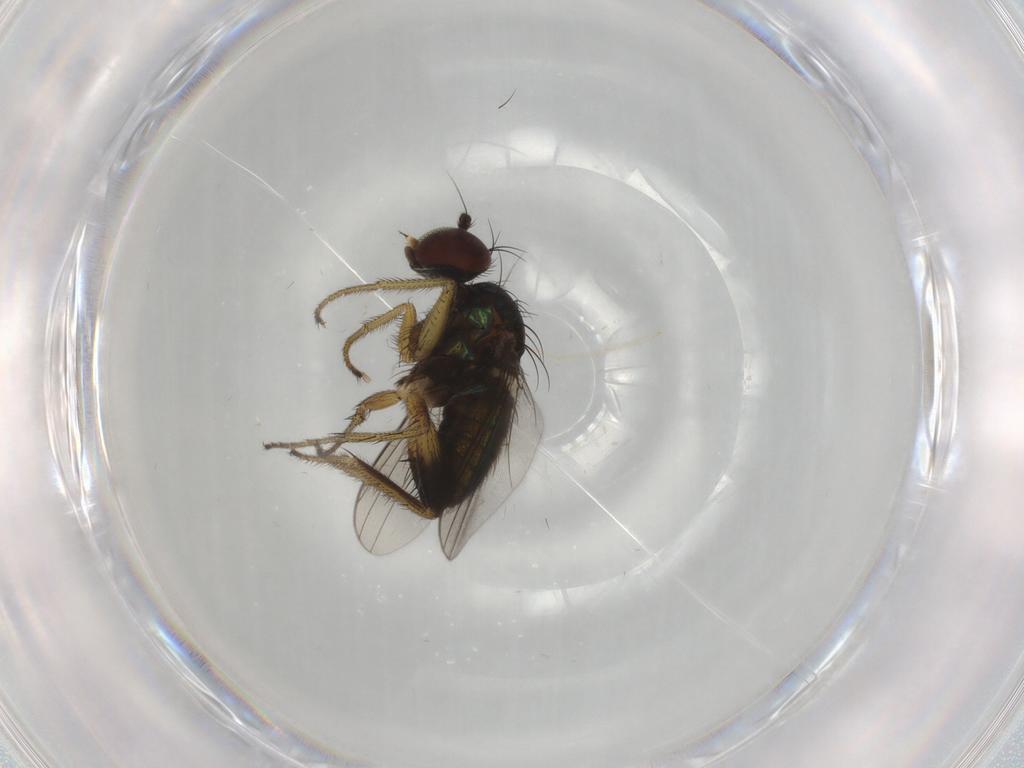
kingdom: Animalia
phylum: Arthropoda
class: Insecta
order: Diptera
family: Dolichopodidae
